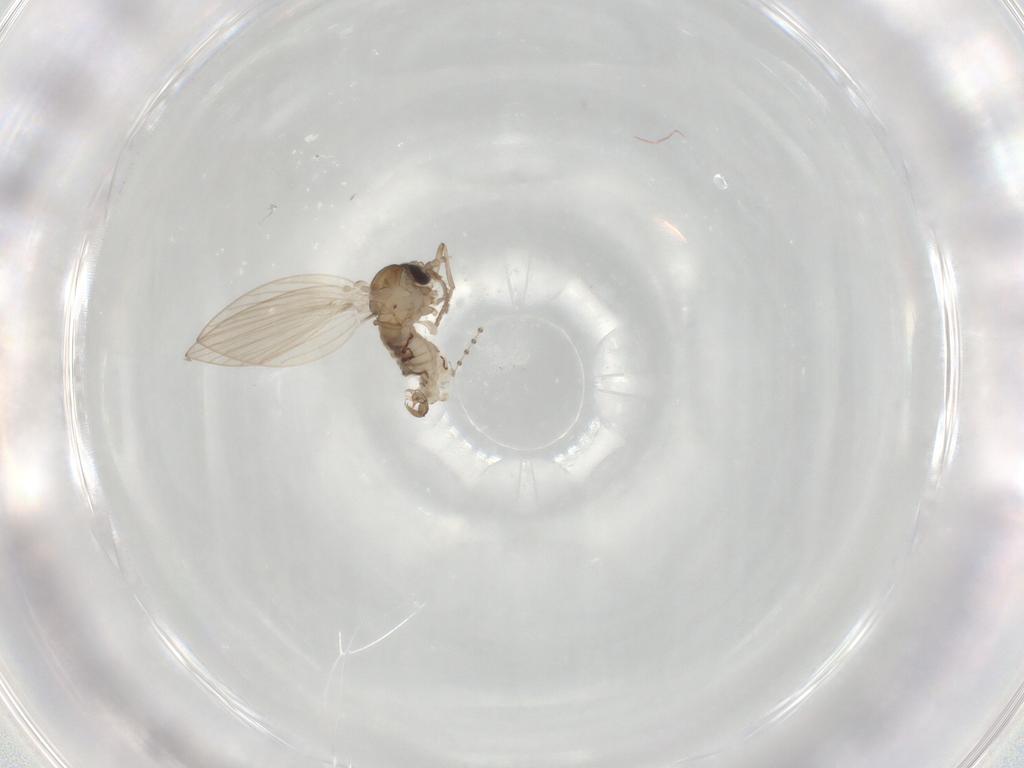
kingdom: Animalia
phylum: Arthropoda
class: Insecta
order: Diptera
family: Psychodidae
